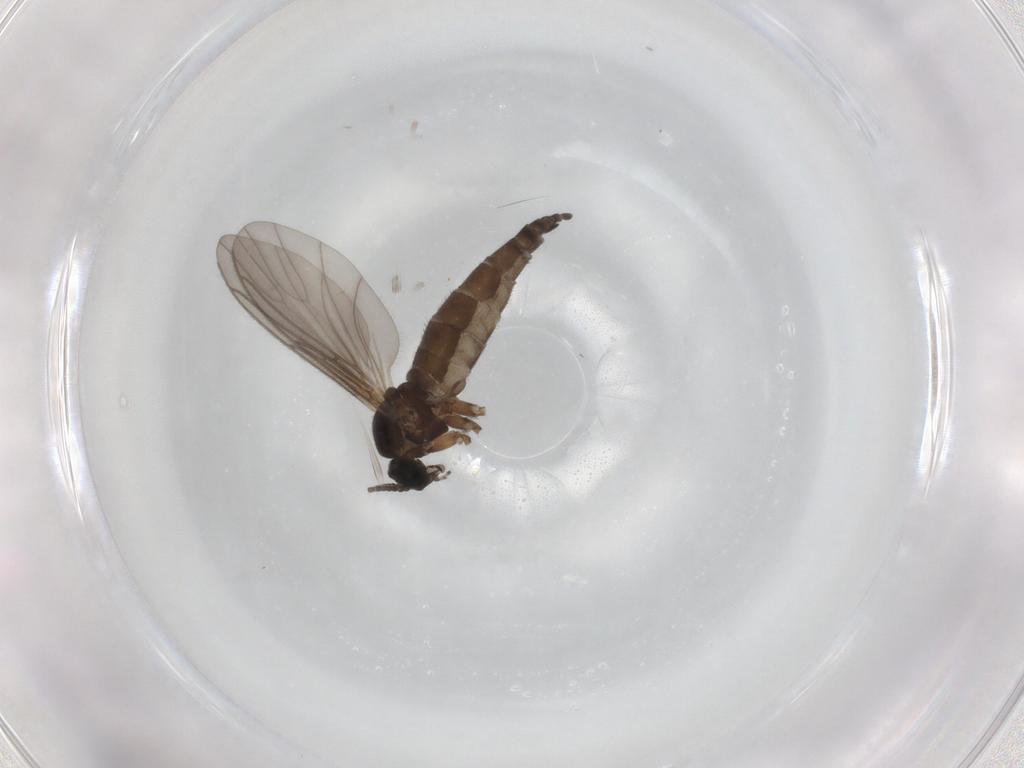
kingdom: Animalia
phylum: Arthropoda
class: Insecta
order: Diptera
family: Sciaridae
